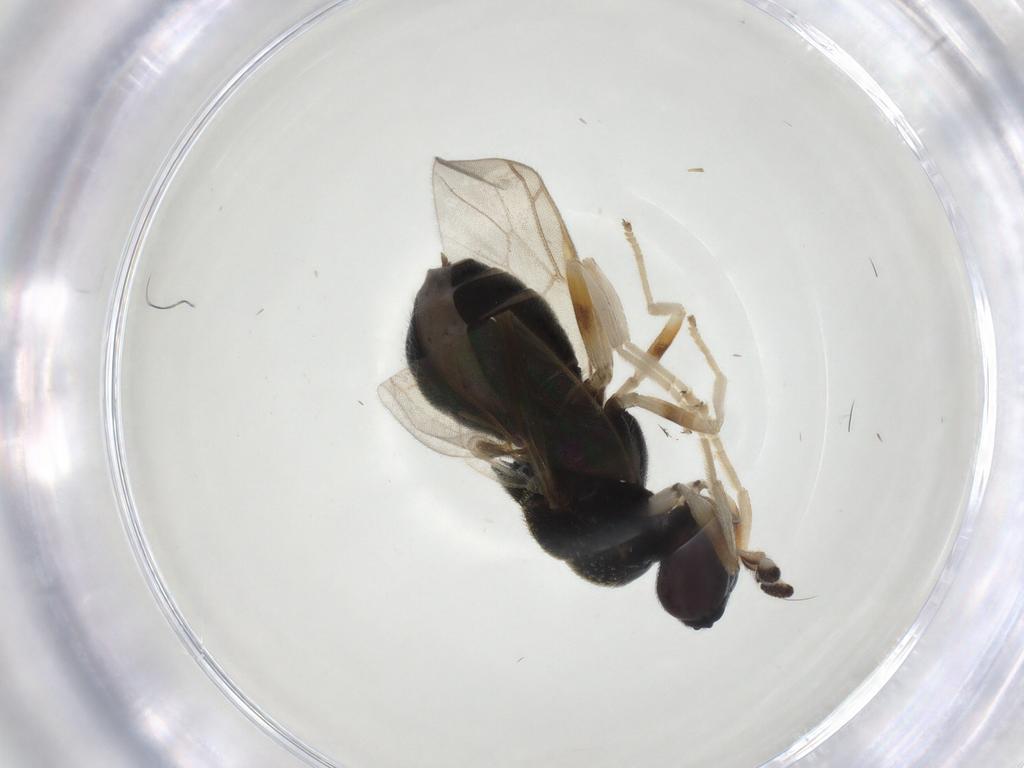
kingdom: Animalia
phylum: Arthropoda
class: Insecta
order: Diptera
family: Stratiomyidae
